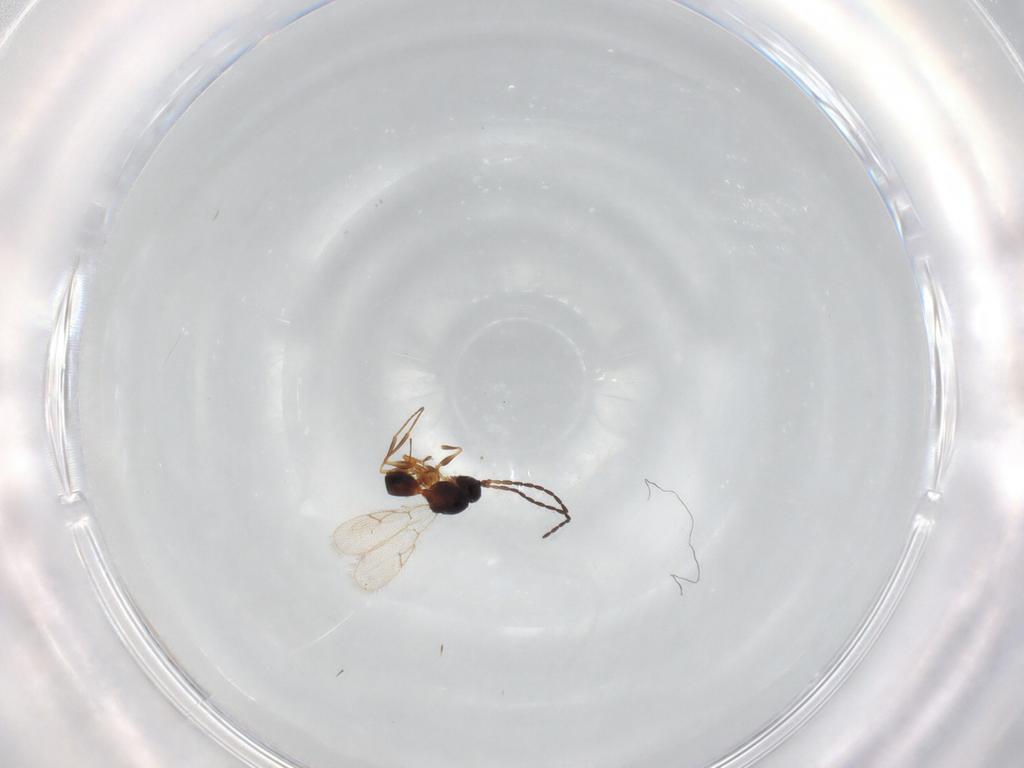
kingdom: Animalia
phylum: Arthropoda
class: Insecta
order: Hymenoptera
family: Figitidae
